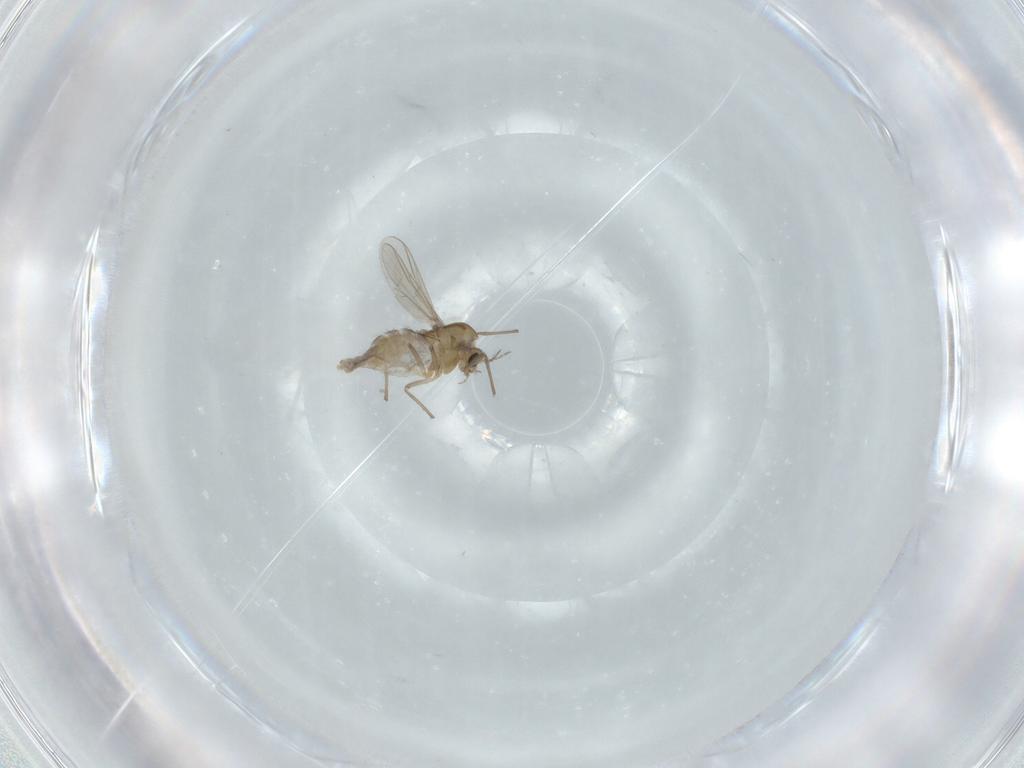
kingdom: Animalia
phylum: Arthropoda
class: Insecta
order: Diptera
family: Chironomidae
